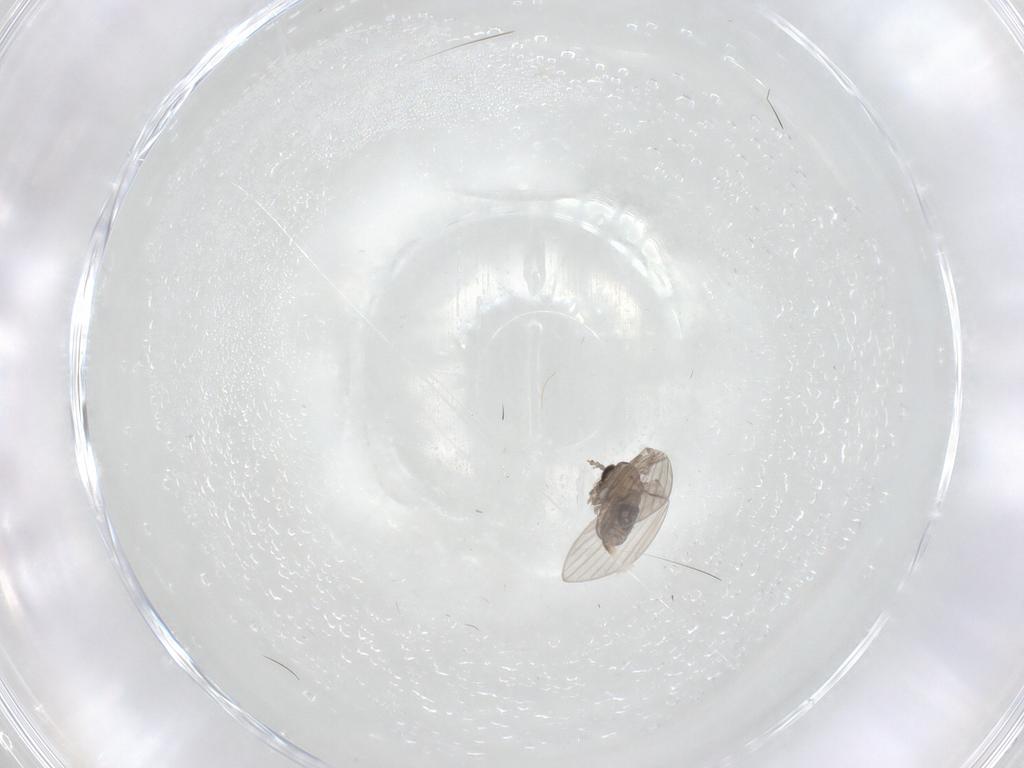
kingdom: Animalia
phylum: Arthropoda
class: Insecta
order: Diptera
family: Psychodidae
